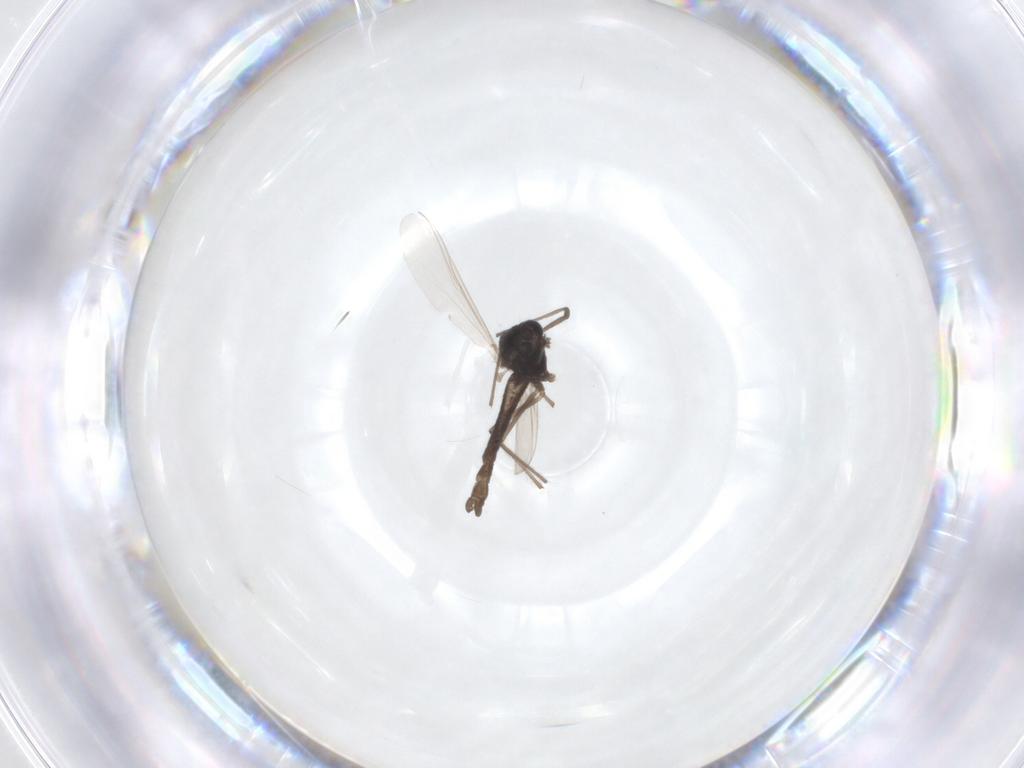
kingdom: Animalia
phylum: Arthropoda
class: Insecta
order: Diptera
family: Chironomidae
